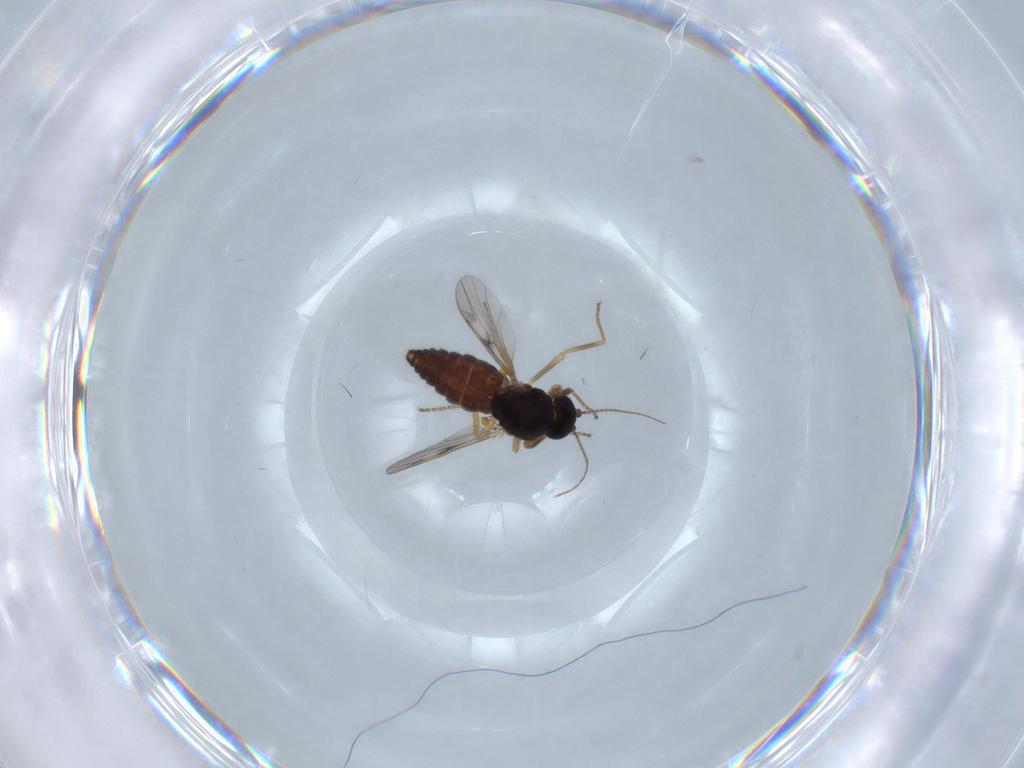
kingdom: Animalia
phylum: Arthropoda
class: Insecta
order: Diptera
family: Ceratopogonidae
